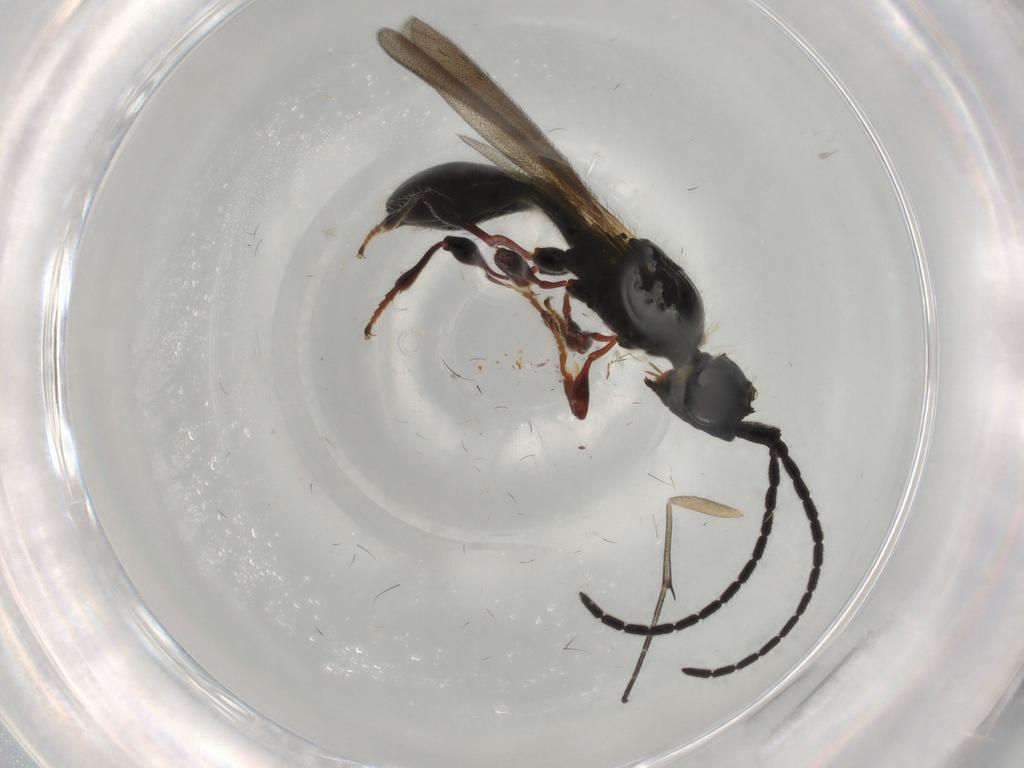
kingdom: Animalia
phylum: Arthropoda
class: Insecta
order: Hymenoptera
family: Diapriidae
